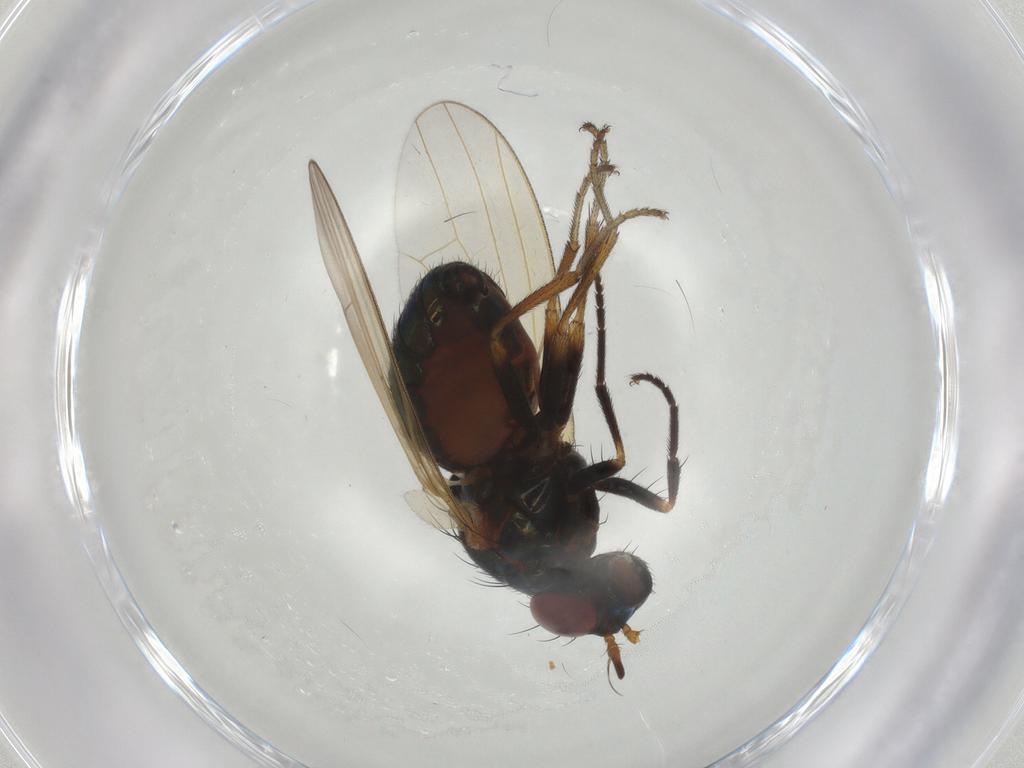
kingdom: Animalia
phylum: Arthropoda
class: Insecta
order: Diptera
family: Lauxaniidae
